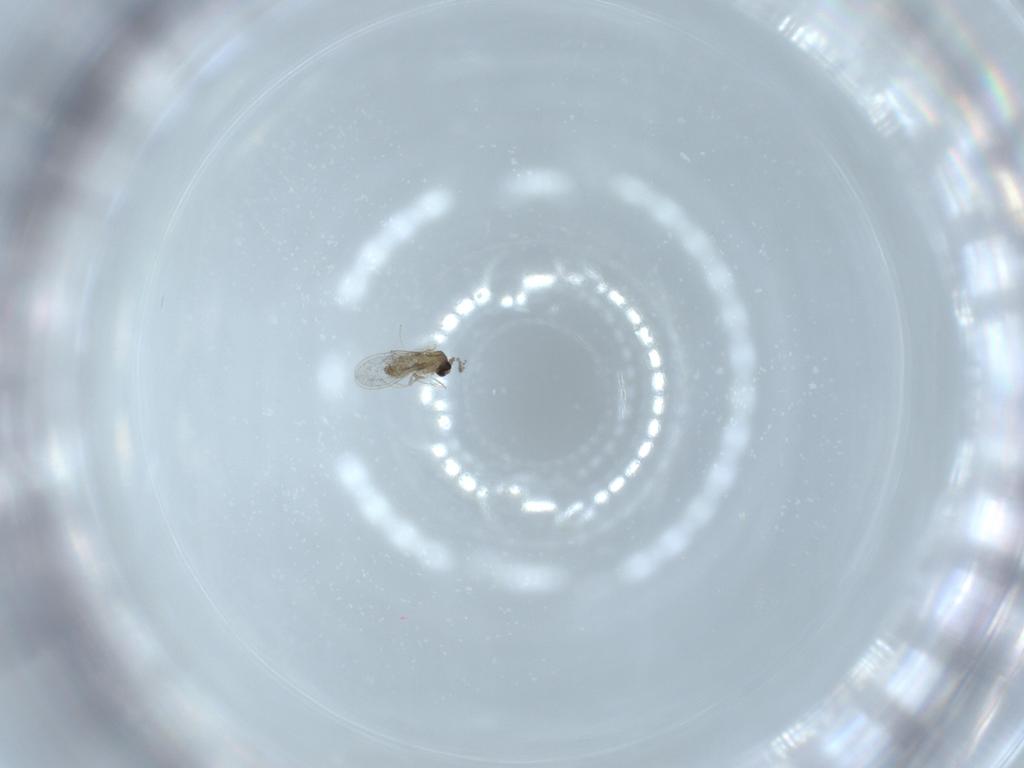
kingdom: Animalia
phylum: Arthropoda
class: Insecta
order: Diptera
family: Cecidomyiidae
